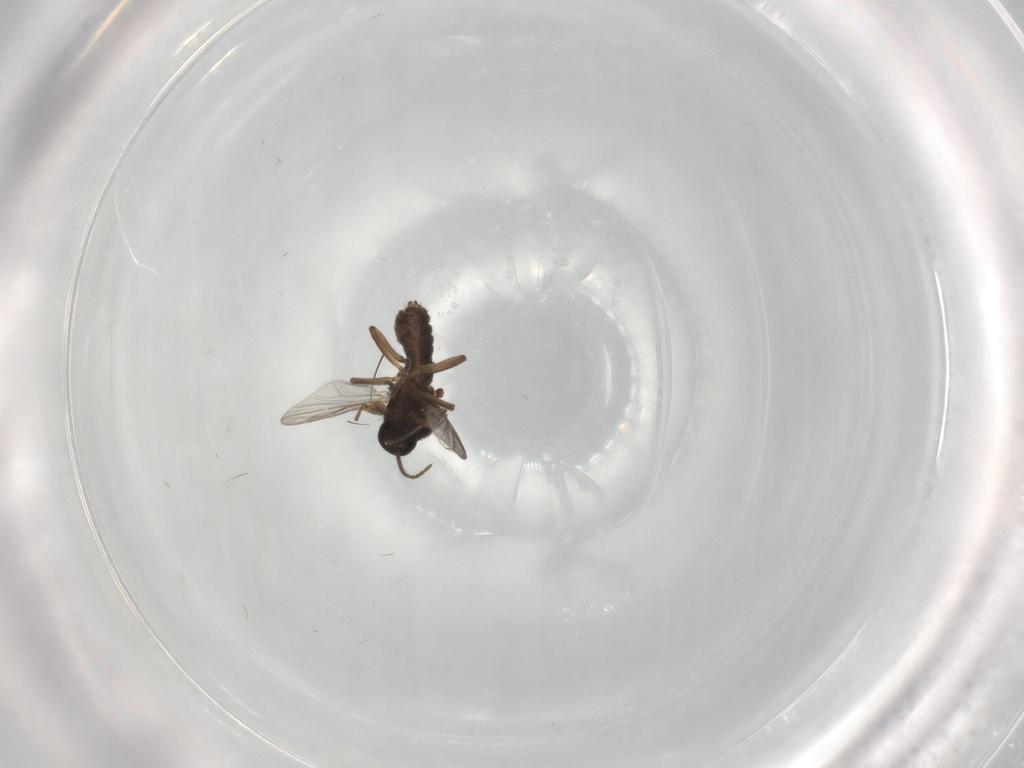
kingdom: Animalia
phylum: Arthropoda
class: Insecta
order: Diptera
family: Ceratopogonidae
